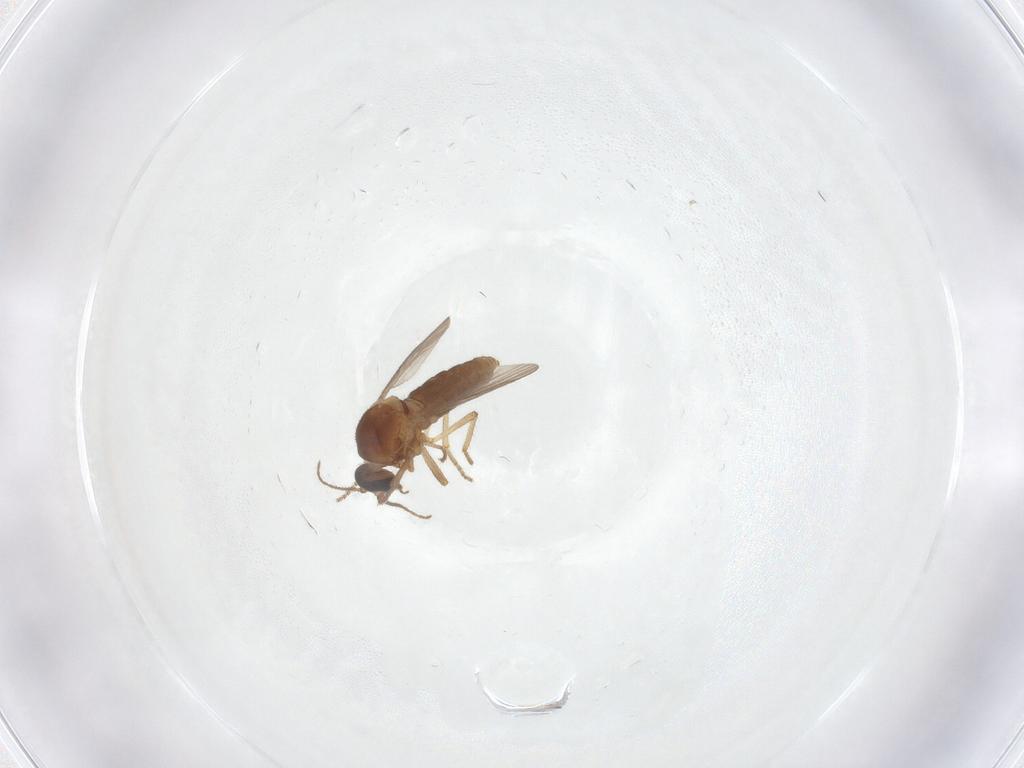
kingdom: Animalia
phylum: Arthropoda
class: Insecta
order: Diptera
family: Ceratopogonidae
